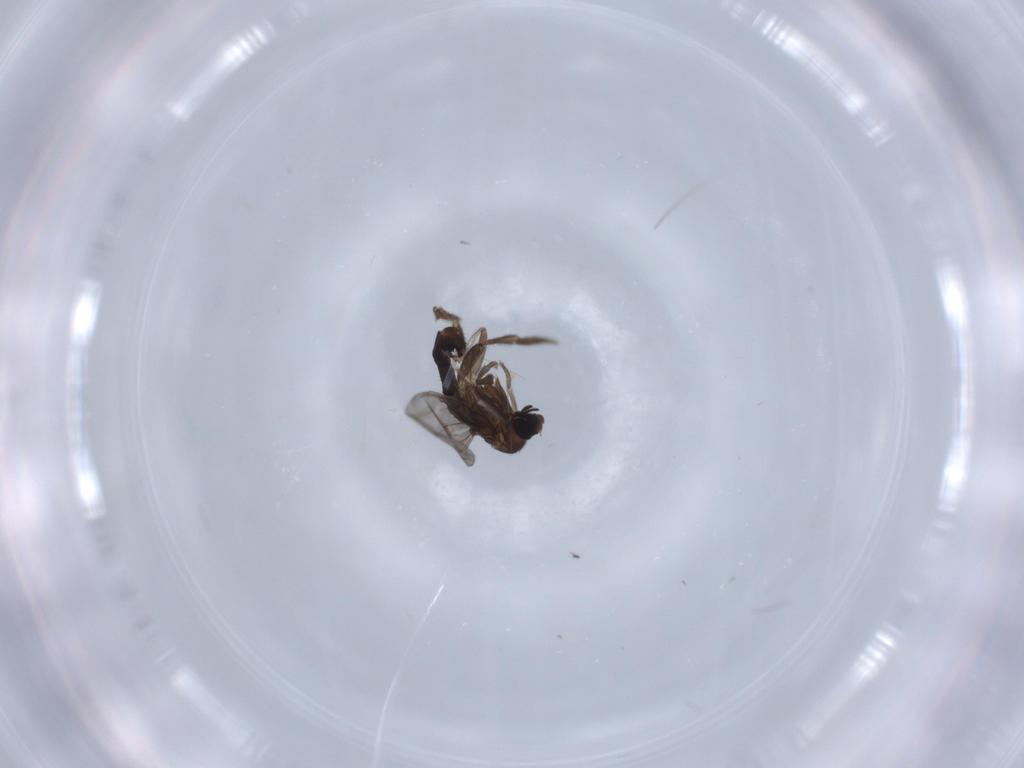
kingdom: Animalia
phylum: Arthropoda
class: Insecta
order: Diptera
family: Phoridae
